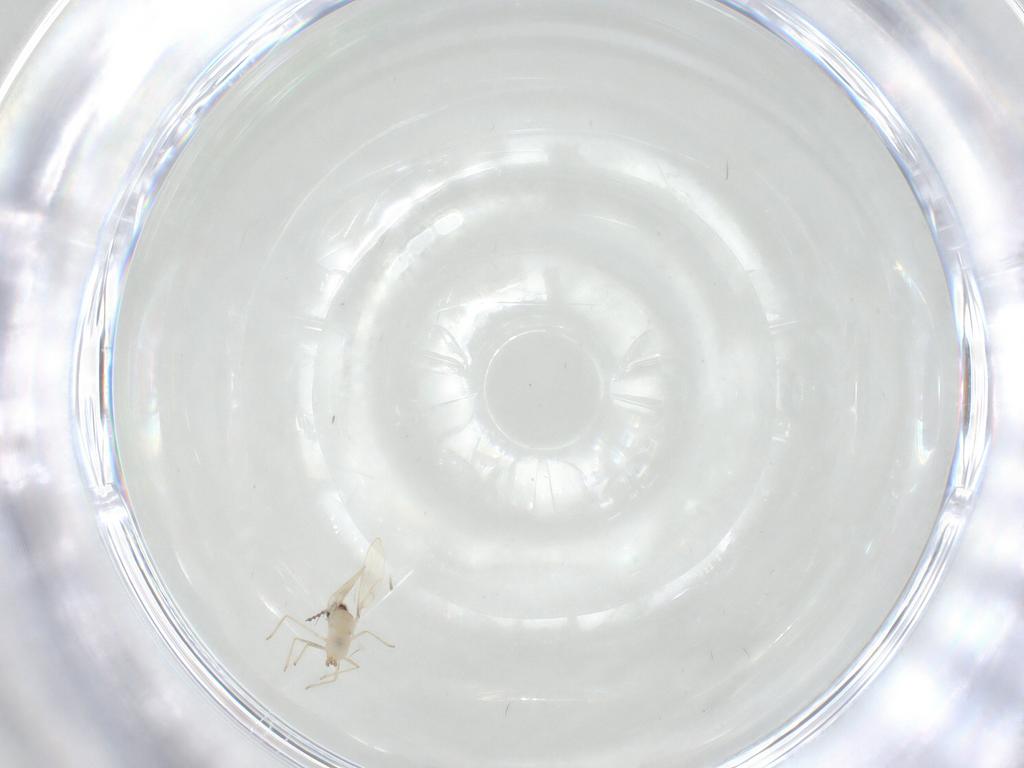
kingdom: Animalia
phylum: Arthropoda
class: Insecta
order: Diptera
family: Cecidomyiidae
